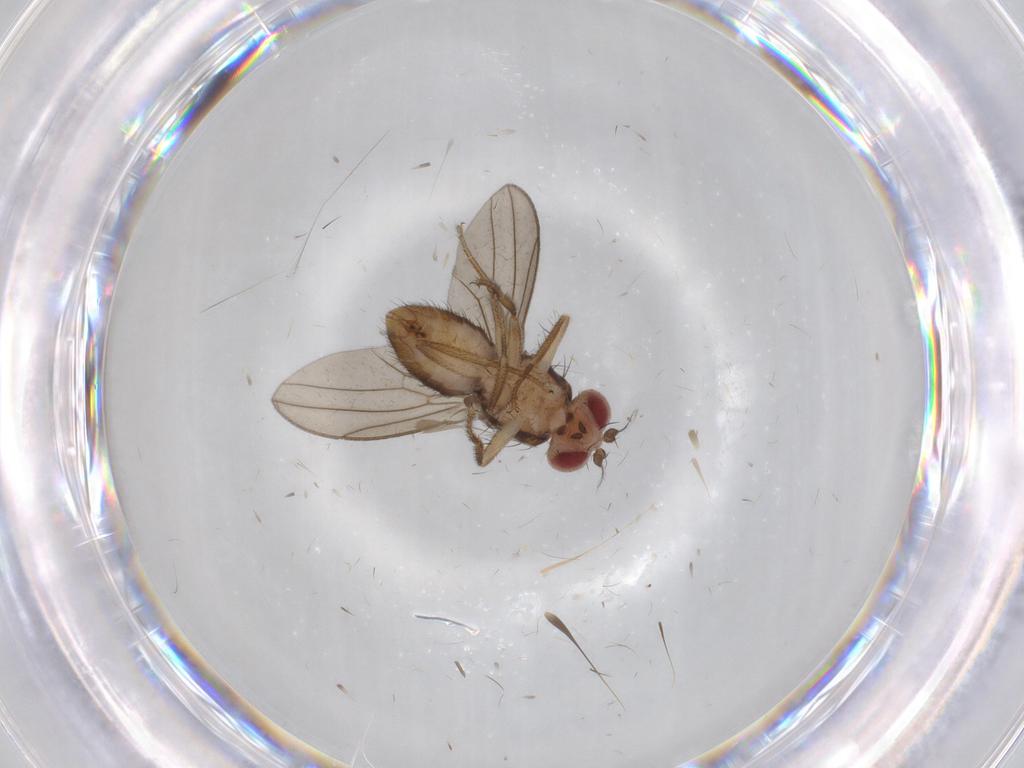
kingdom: Animalia
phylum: Arthropoda
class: Insecta
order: Diptera
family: Drosophilidae
